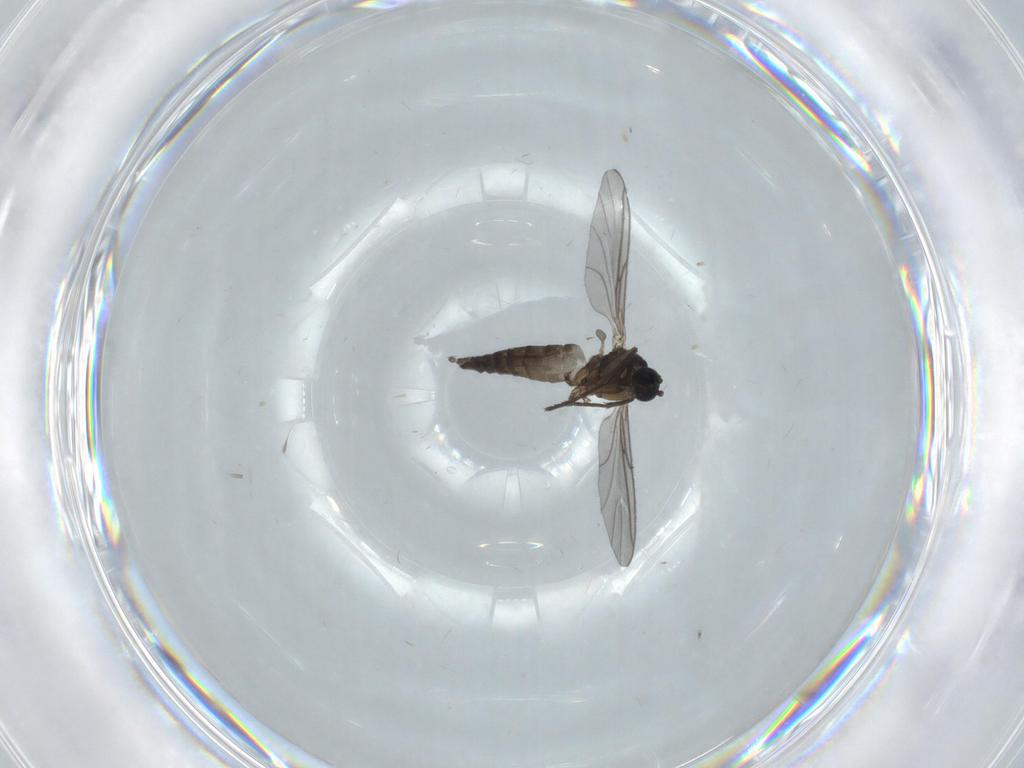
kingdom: Animalia
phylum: Arthropoda
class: Insecta
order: Diptera
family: Sciaridae
